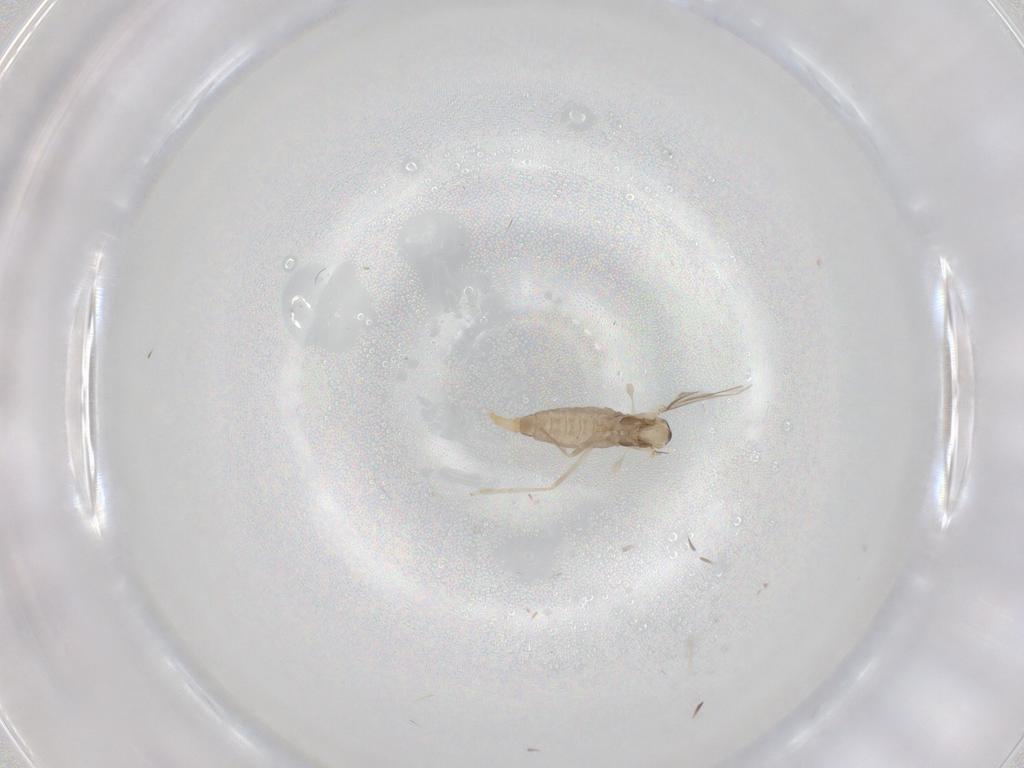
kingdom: Animalia
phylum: Arthropoda
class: Insecta
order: Diptera
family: Cecidomyiidae
